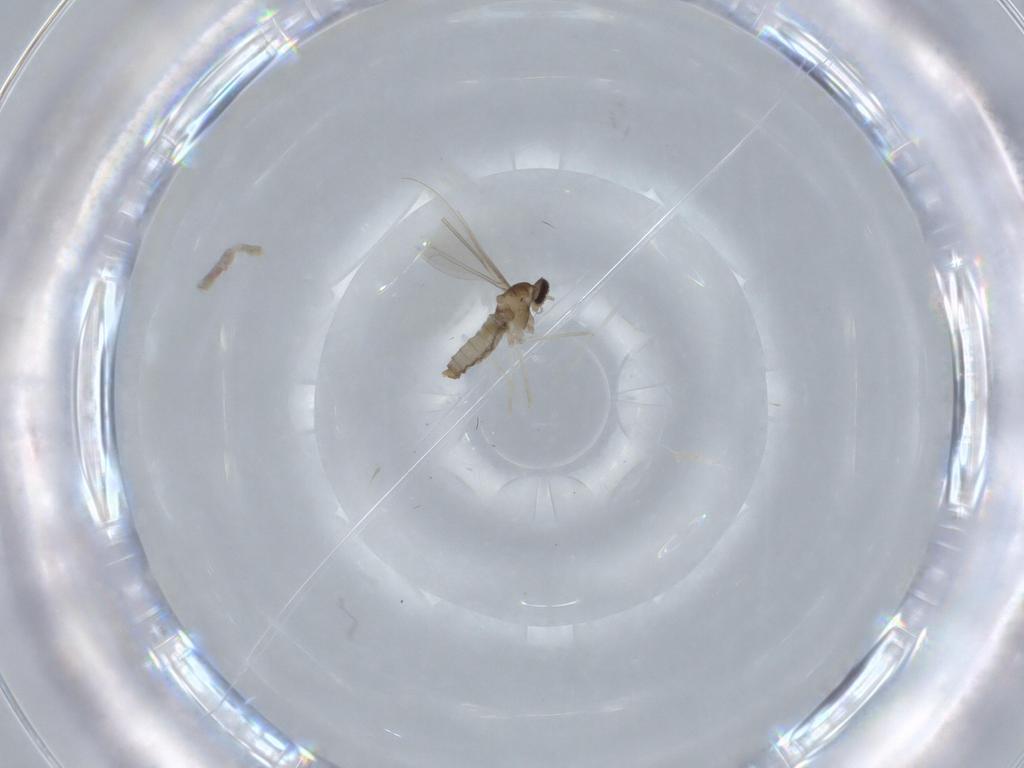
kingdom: Animalia
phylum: Arthropoda
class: Insecta
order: Diptera
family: Cecidomyiidae
